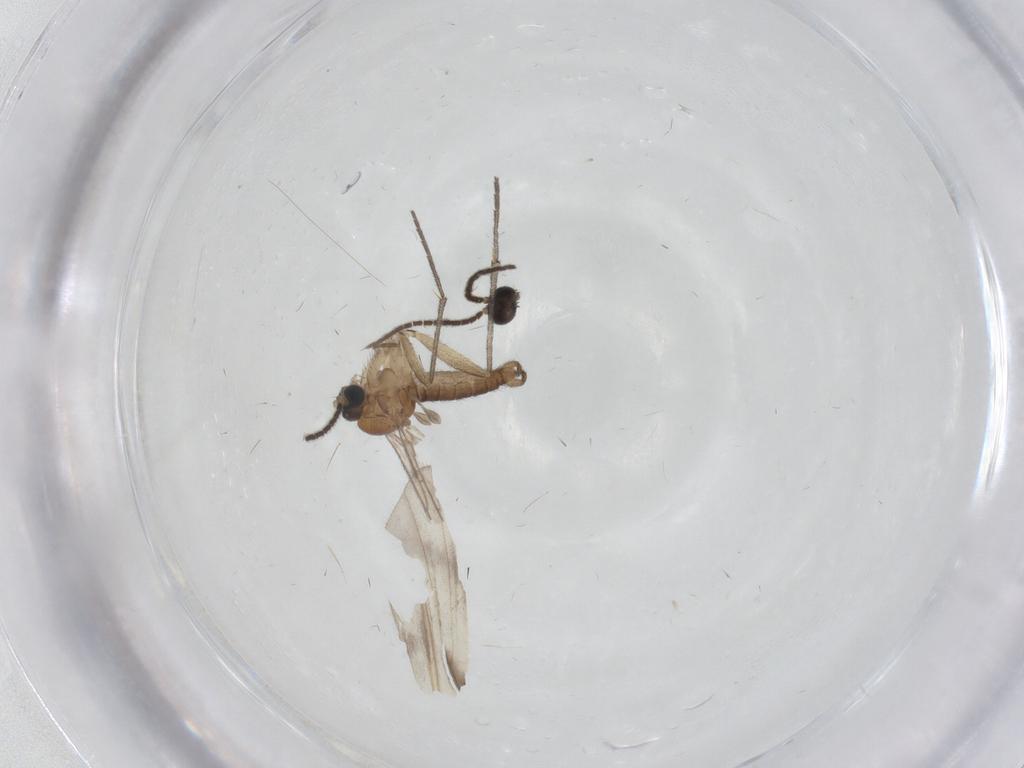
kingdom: Animalia
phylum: Arthropoda
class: Insecta
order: Diptera
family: Sciaridae
